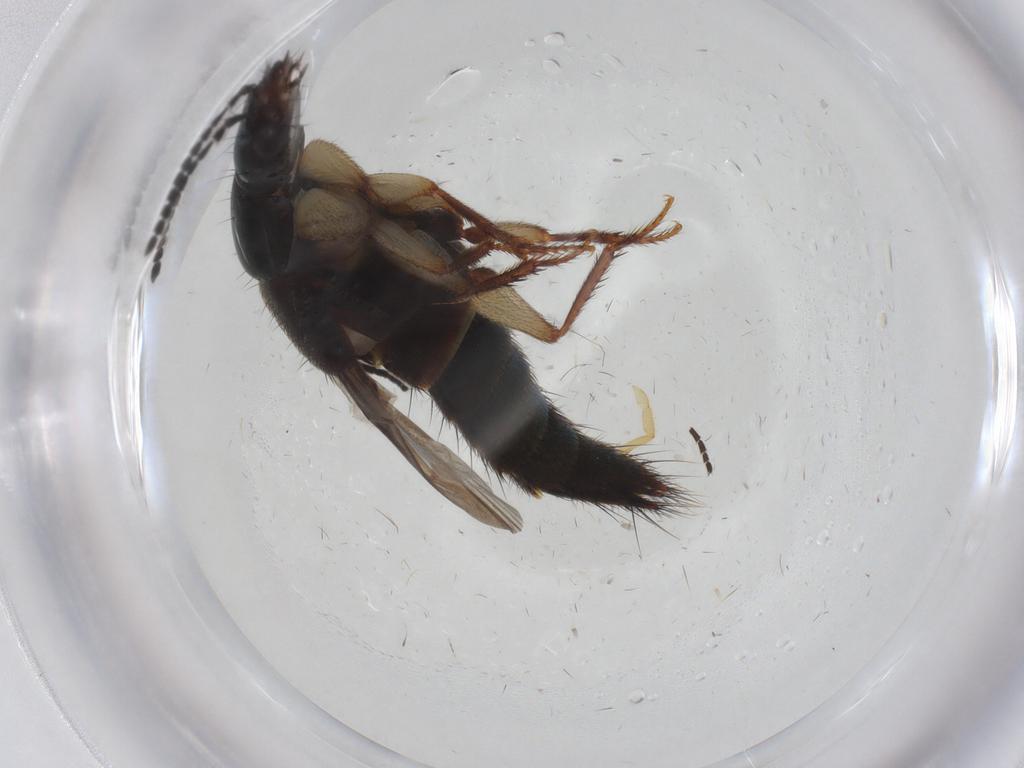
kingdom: Animalia
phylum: Arthropoda
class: Insecta
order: Coleoptera
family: Staphylinidae
